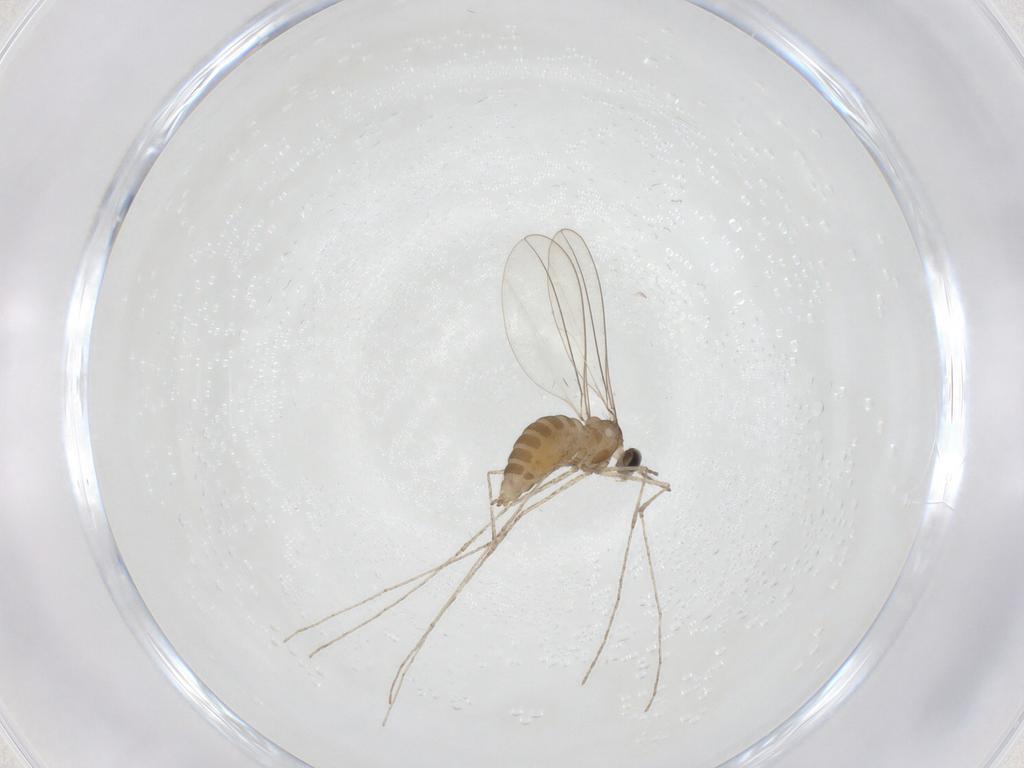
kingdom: Animalia
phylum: Arthropoda
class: Insecta
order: Diptera
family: Cecidomyiidae
